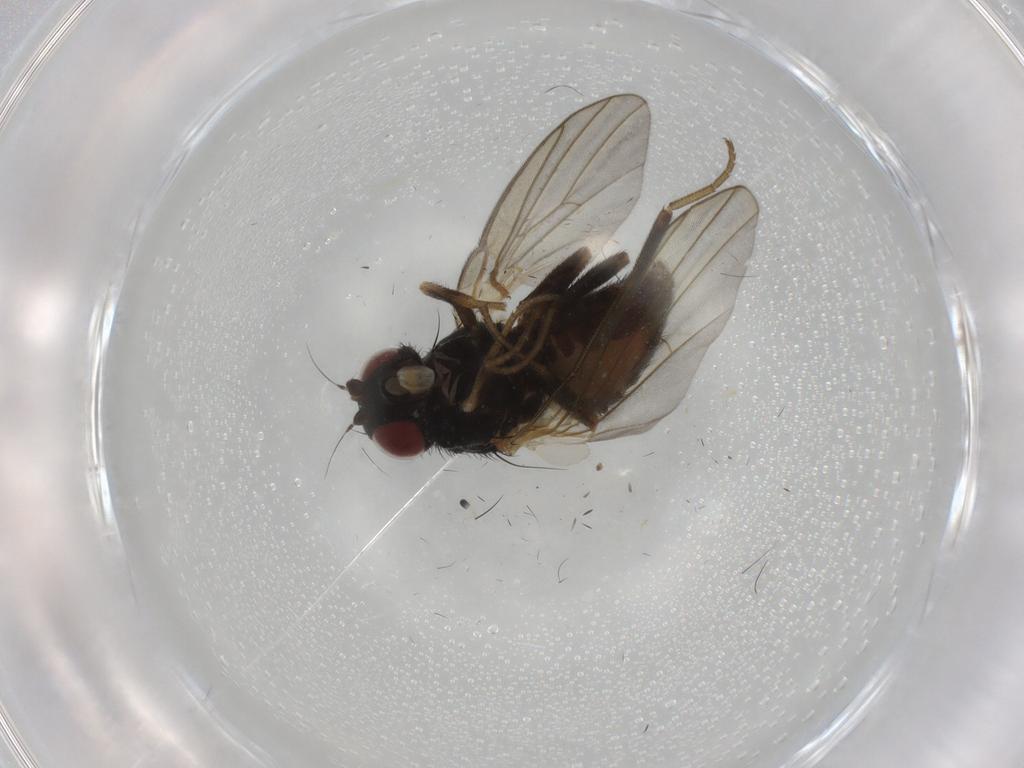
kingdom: Animalia
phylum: Arthropoda
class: Insecta
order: Diptera
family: Agromyzidae
